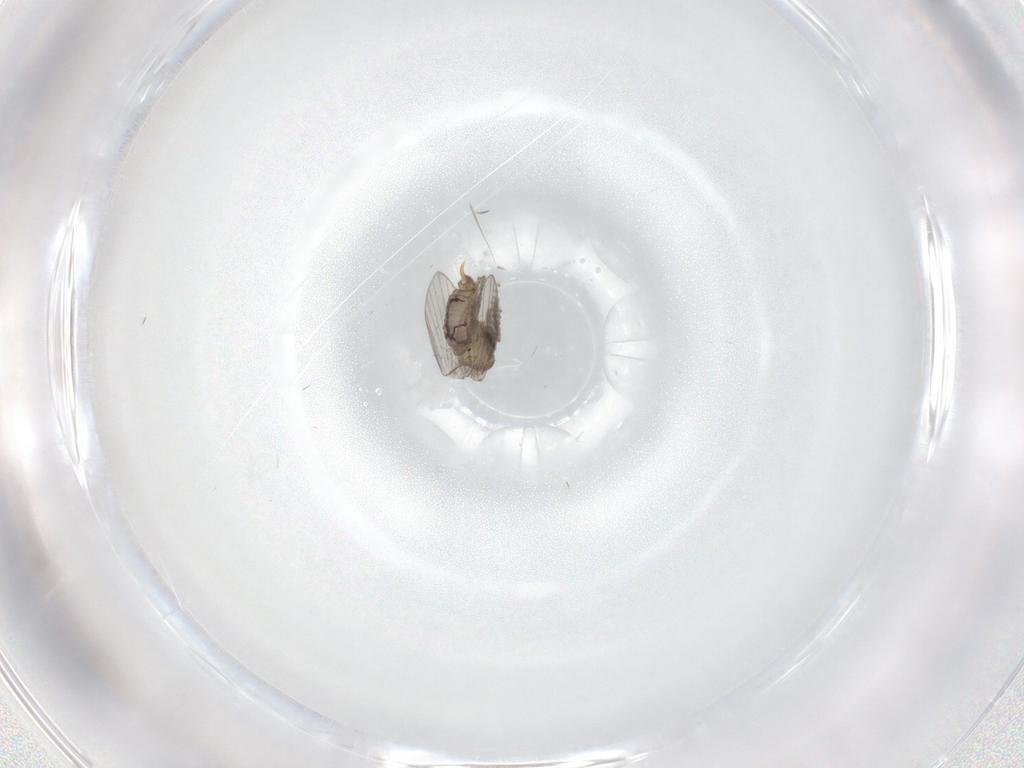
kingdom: Animalia
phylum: Arthropoda
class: Insecta
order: Diptera
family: Psychodidae
